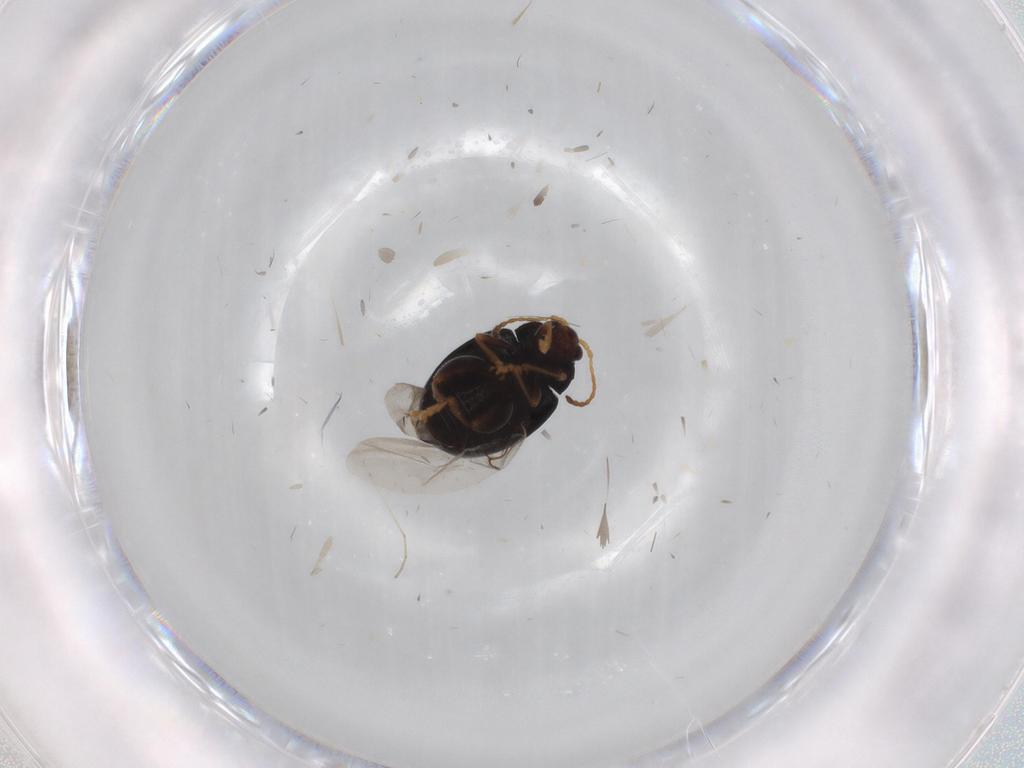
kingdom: Animalia
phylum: Arthropoda
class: Insecta
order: Coleoptera
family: Chrysomelidae
